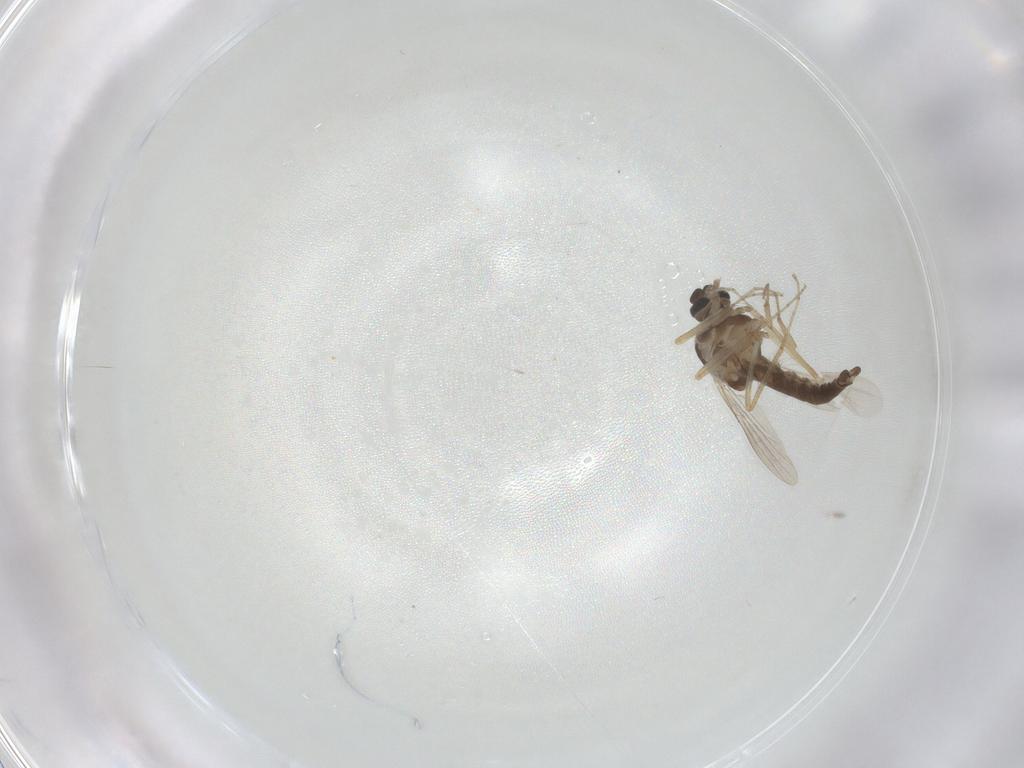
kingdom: Animalia
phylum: Arthropoda
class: Insecta
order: Diptera
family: Ceratopogonidae
